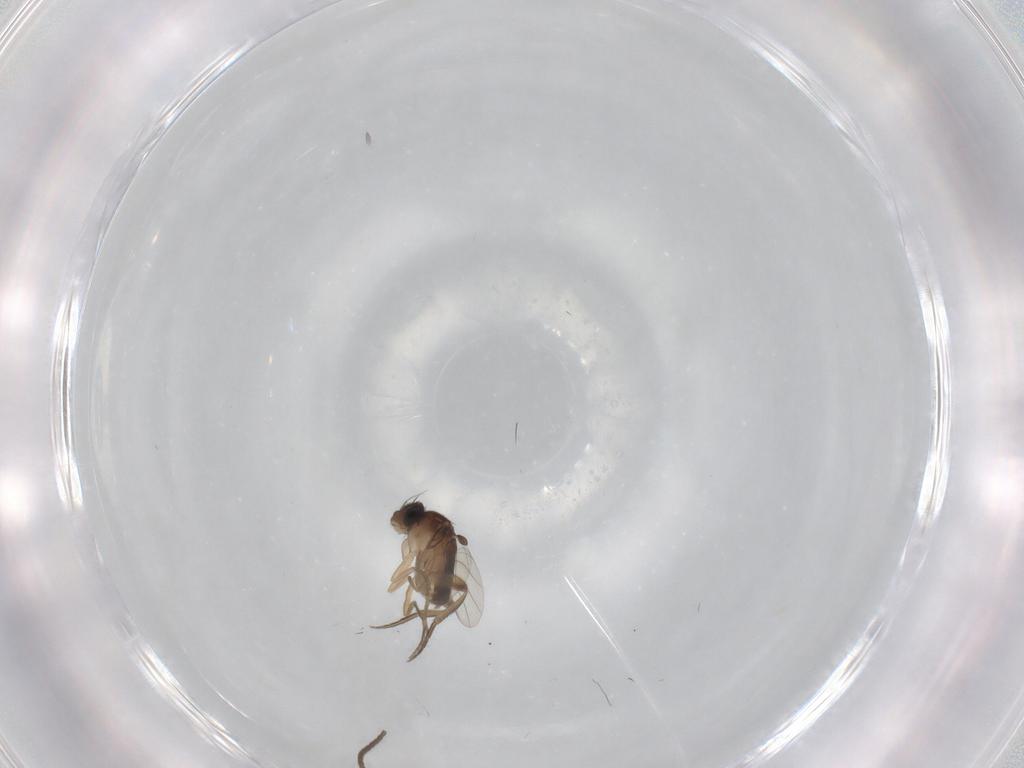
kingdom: Animalia
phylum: Arthropoda
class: Insecta
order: Diptera
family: Sciaridae
